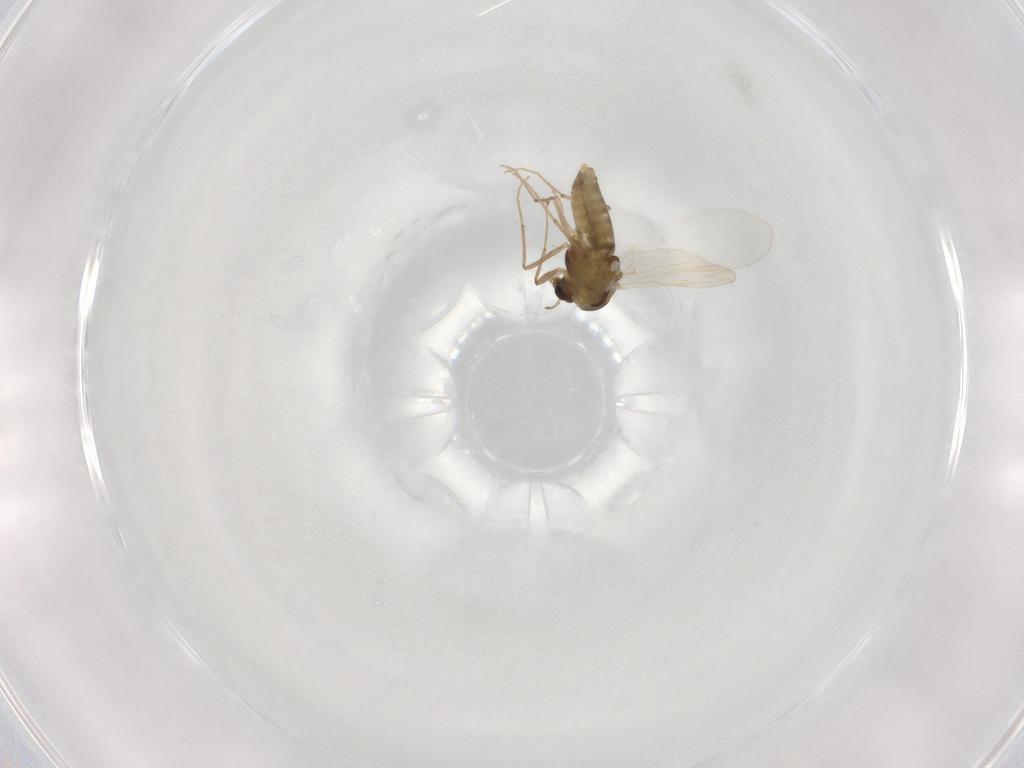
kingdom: Animalia
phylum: Arthropoda
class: Insecta
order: Diptera
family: Chironomidae
